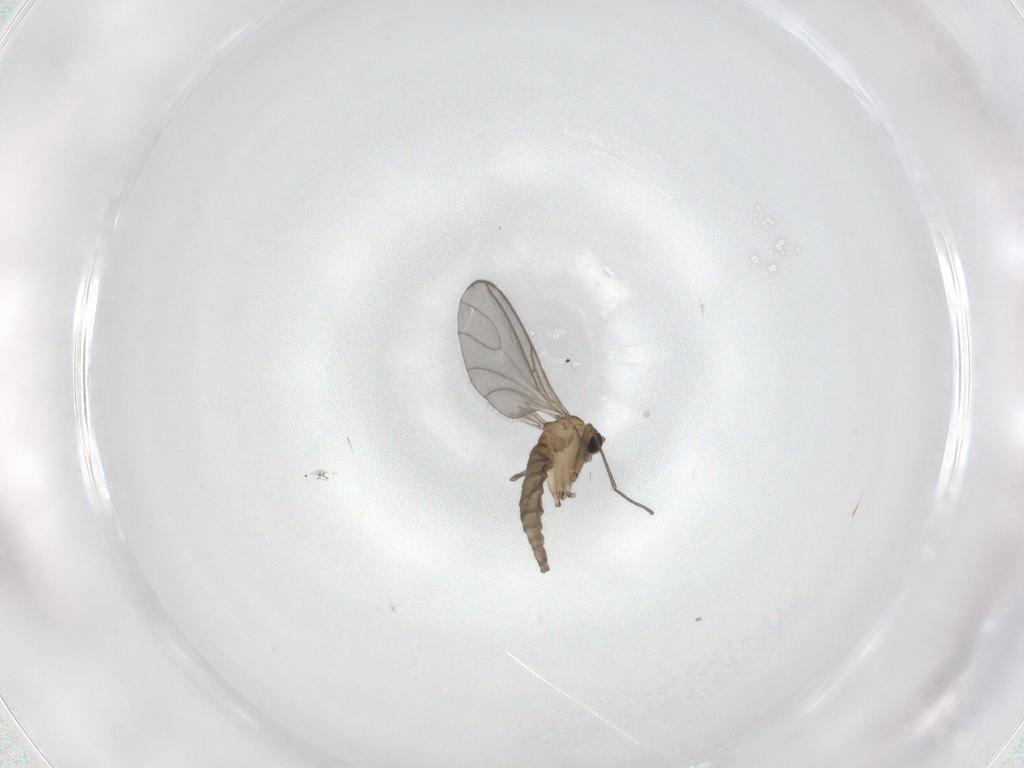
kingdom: Animalia
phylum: Arthropoda
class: Insecta
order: Diptera
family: Sciaridae
